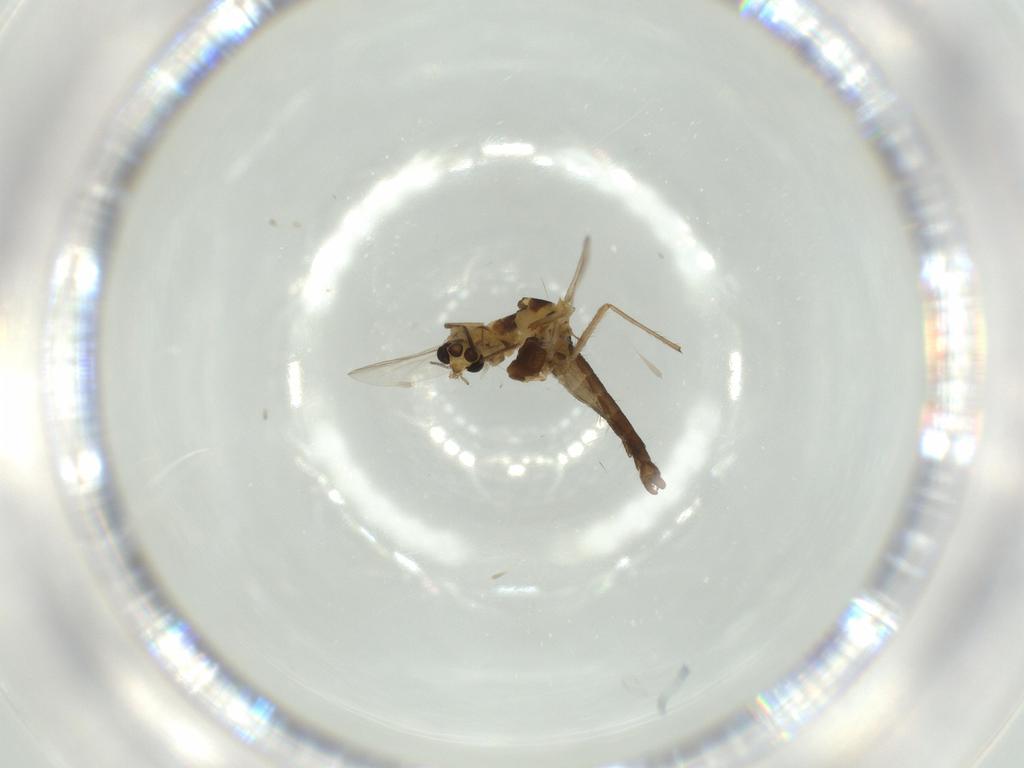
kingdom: Animalia
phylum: Arthropoda
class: Insecta
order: Diptera
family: Chironomidae
